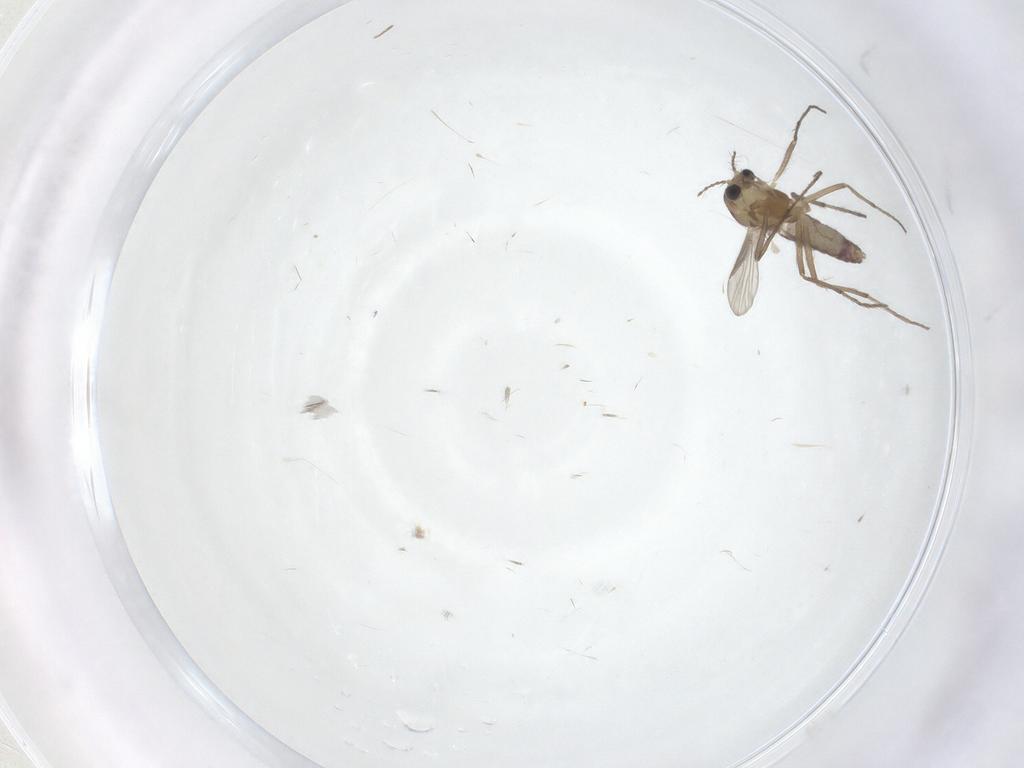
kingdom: Animalia
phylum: Arthropoda
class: Insecta
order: Diptera
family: Chironomidae
